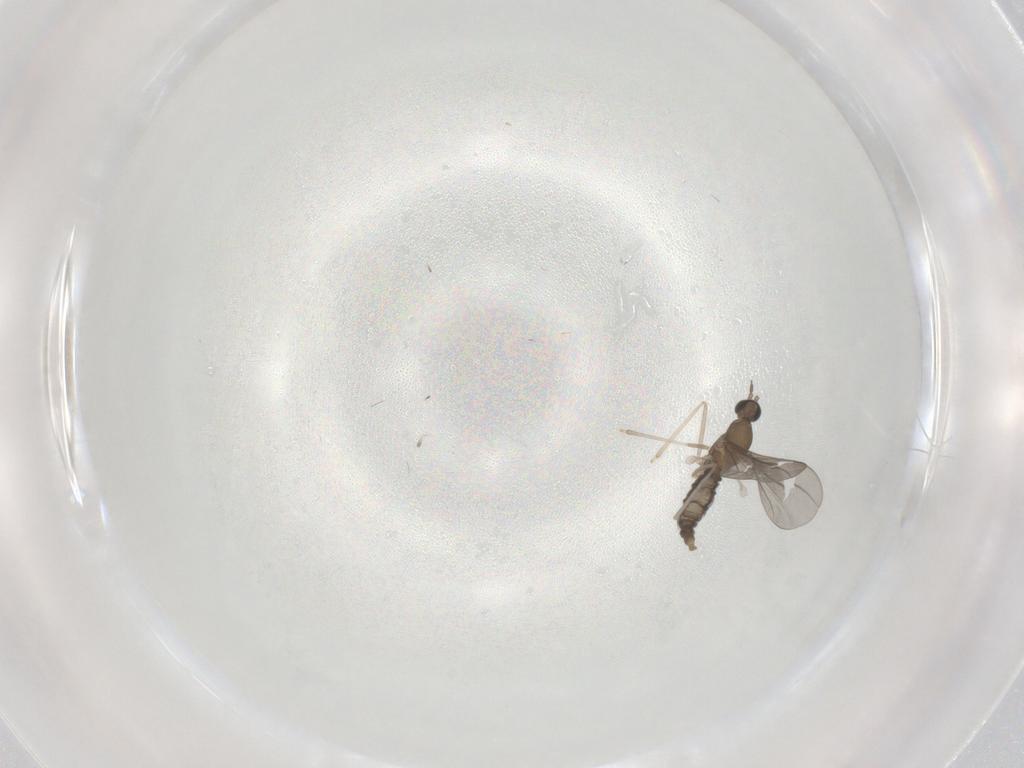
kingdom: Animalia
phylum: Arthropoda
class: Insecta
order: Diptera
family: Cecidomyiidae
